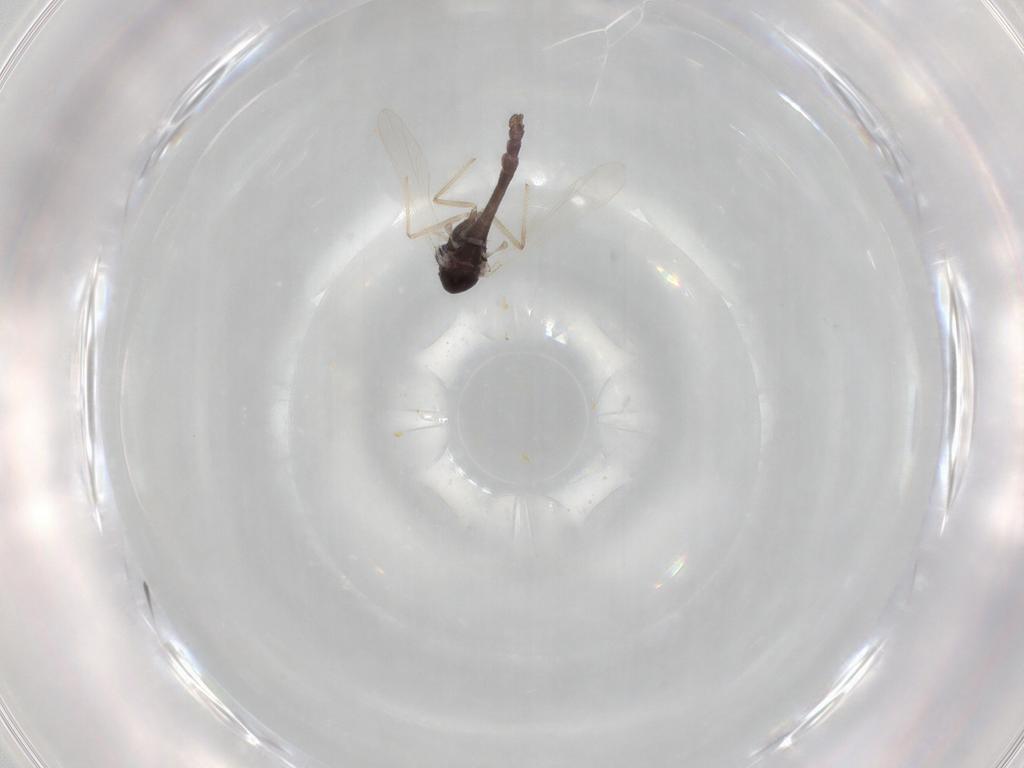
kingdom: Animalia
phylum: Arthropoda
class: Insecta
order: Diptera
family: Chironomidae
